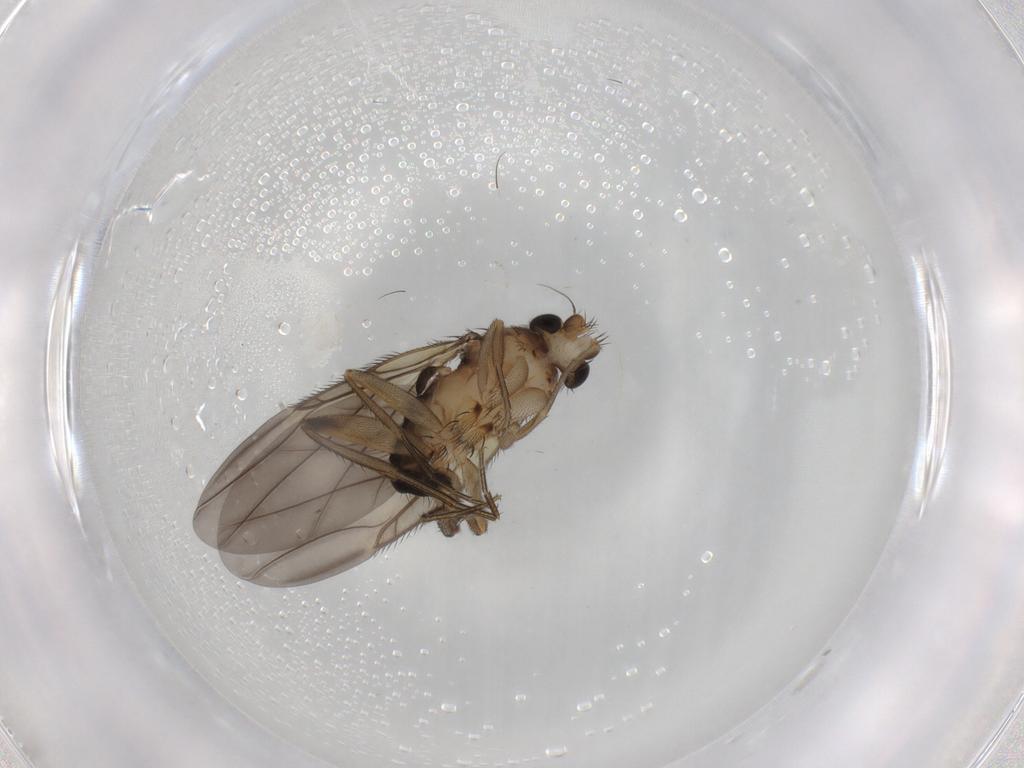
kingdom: Animalia
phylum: Arthropoda
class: Insecta
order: Diptera
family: Phoridae
